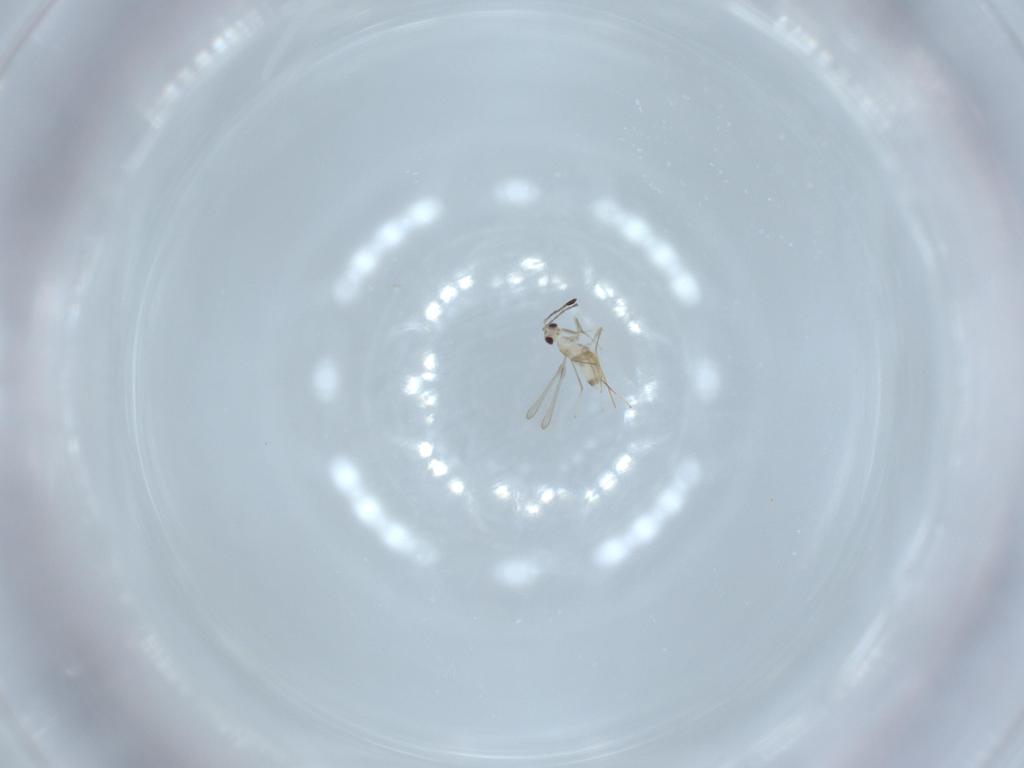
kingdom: Animalia
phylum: Arthropoda
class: Insecta
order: Hymenoptera
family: Mymaridae
